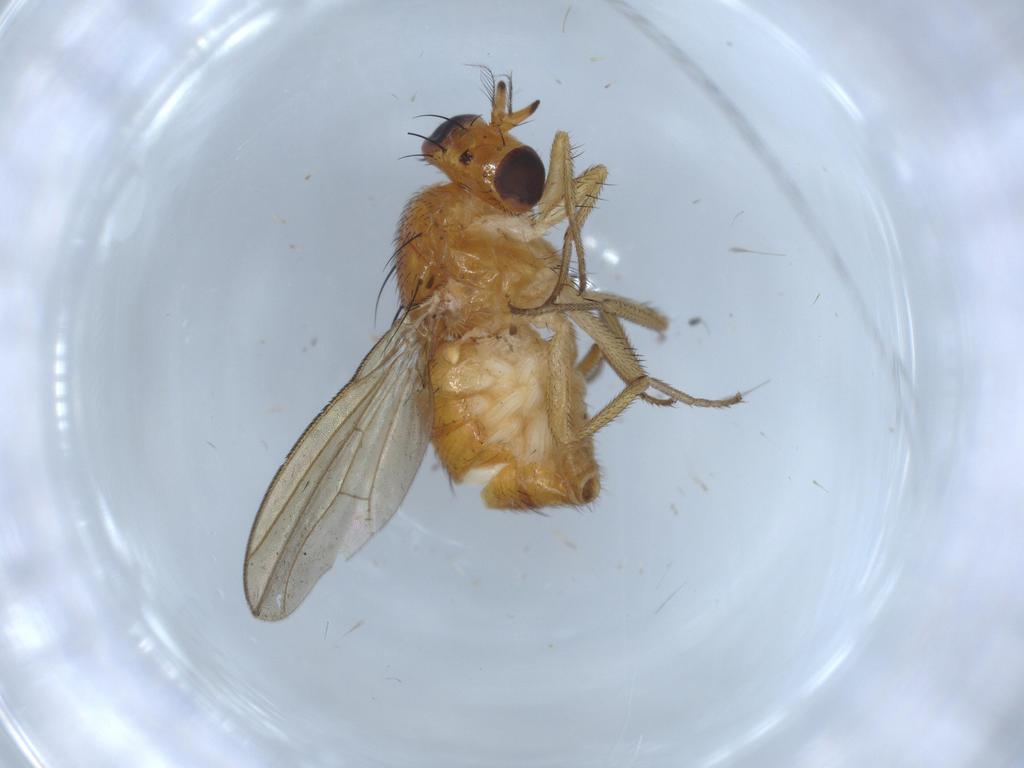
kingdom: Animalia
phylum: Arthropoda
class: Insecta
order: Diptera
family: Lauxaniidae
